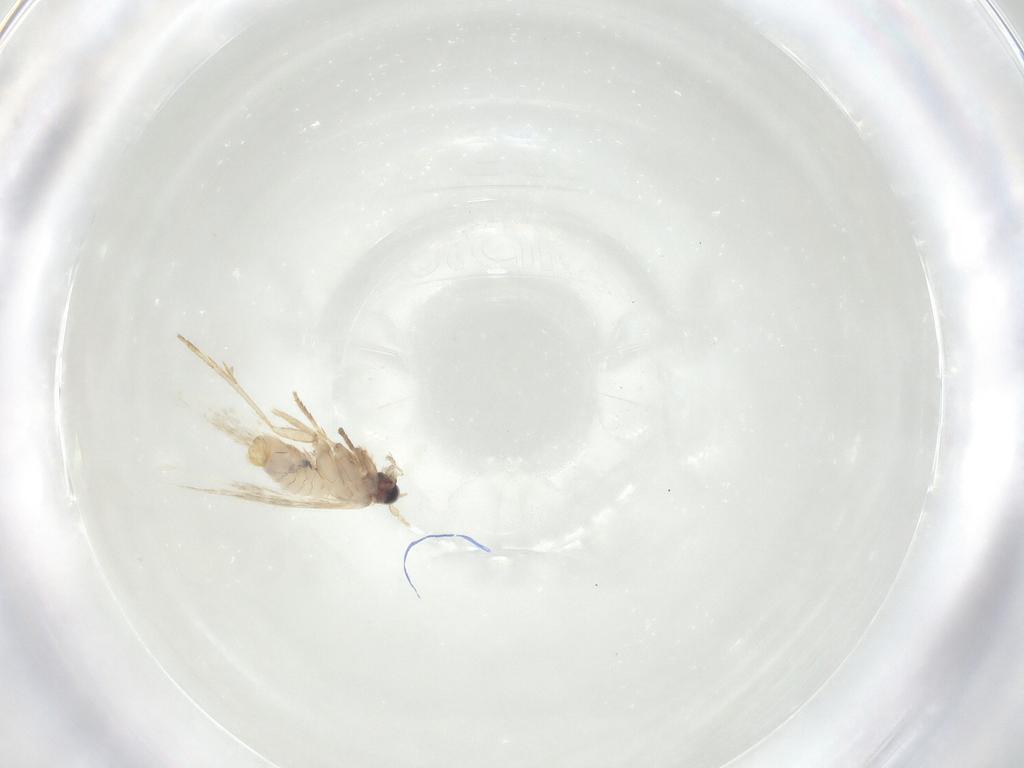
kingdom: Animalia
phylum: Arthropoda
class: Insecta
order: Lepidoptera
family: Nepticulidae
